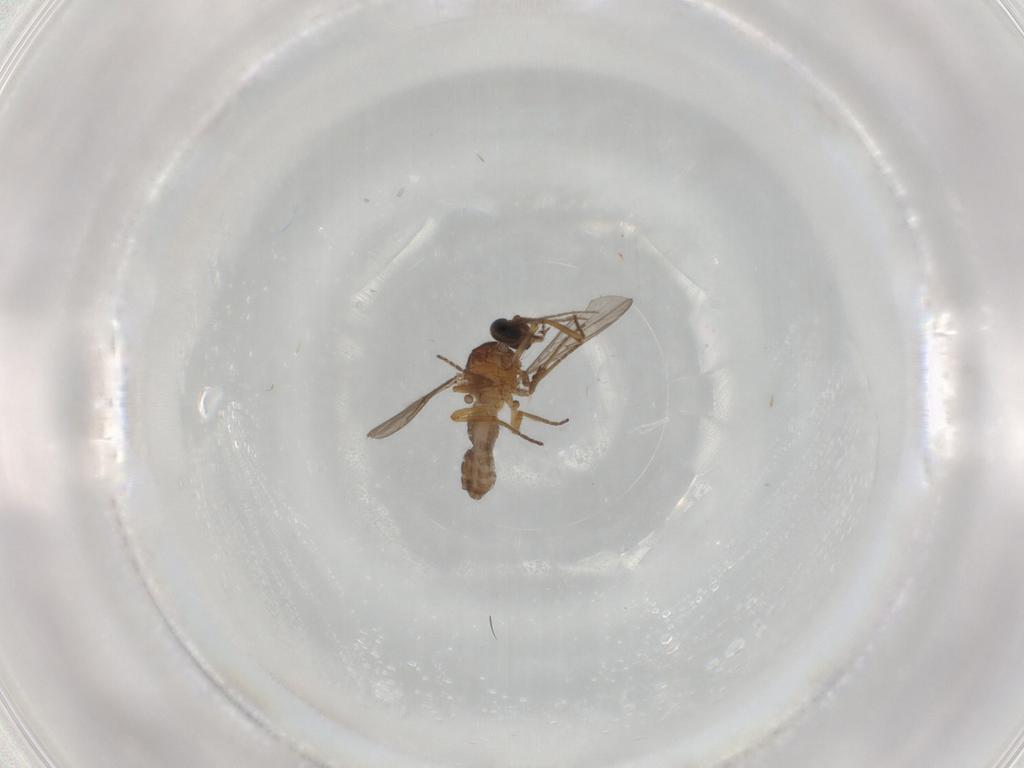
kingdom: Animalia
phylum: Arthropoda
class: Insecta
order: Diptera
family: Ceratopogonidae
